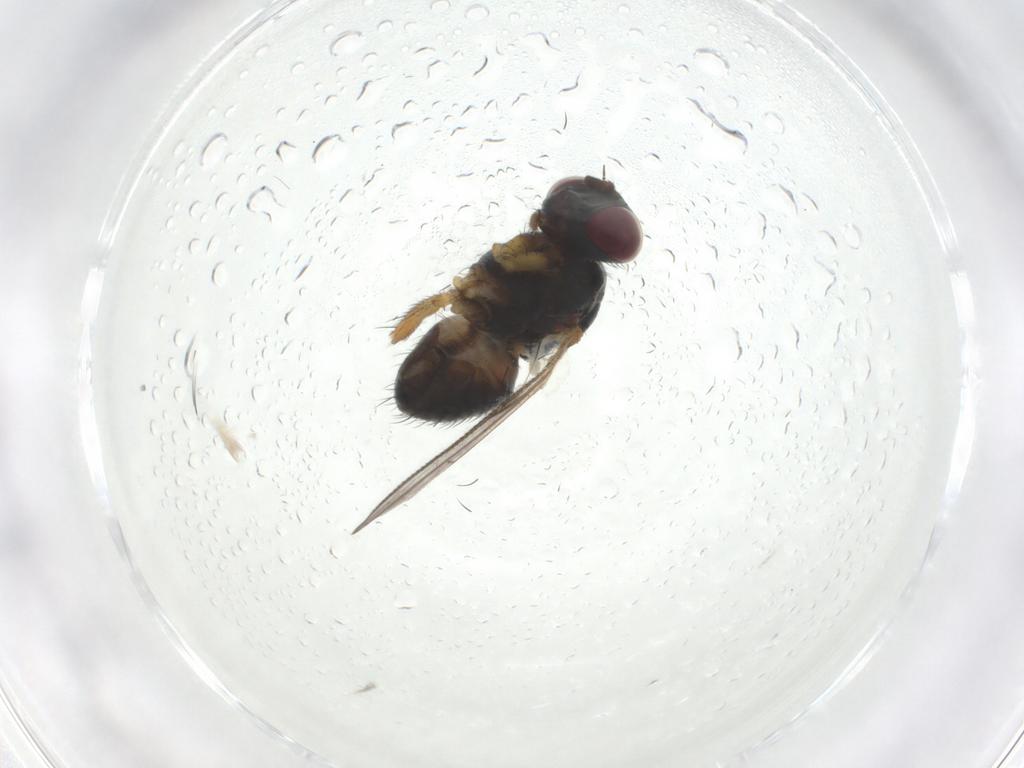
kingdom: Animalia
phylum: Arthropoda
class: Insecta
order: Diptera
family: Muscidae
